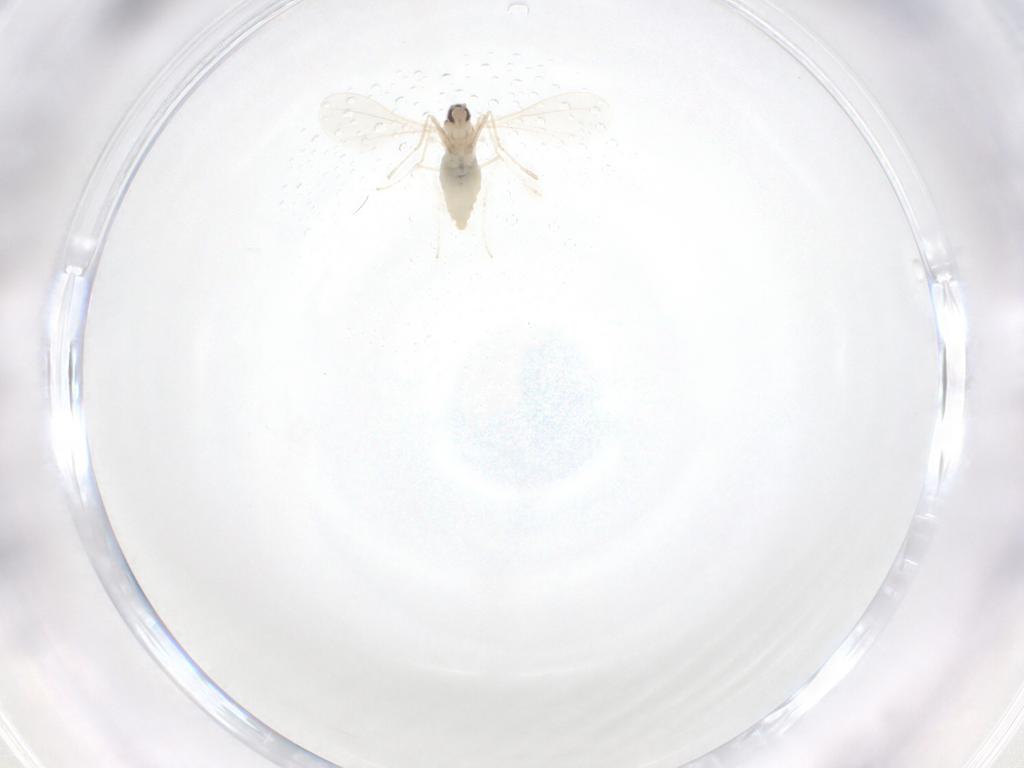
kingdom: Animalia
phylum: Arthropoda
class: Insecta
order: Diptera
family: Cecidomyiidae
